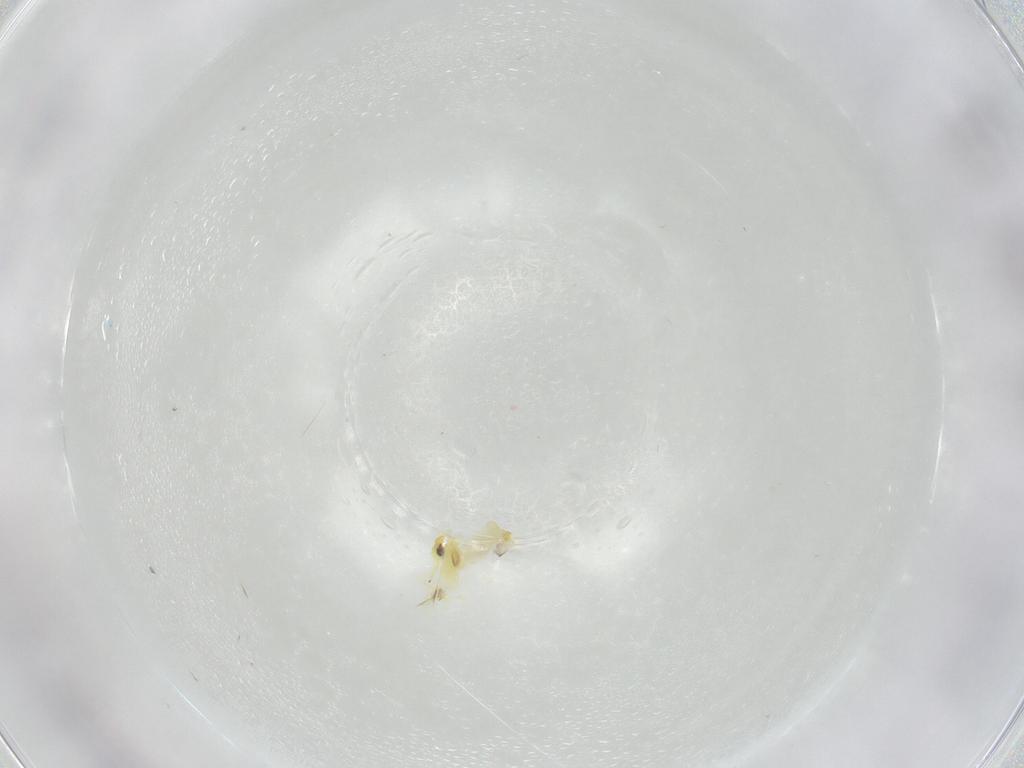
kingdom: Animalia
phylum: Arthropoda
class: Insecta
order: Hemiptera
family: Aleyrodidae
